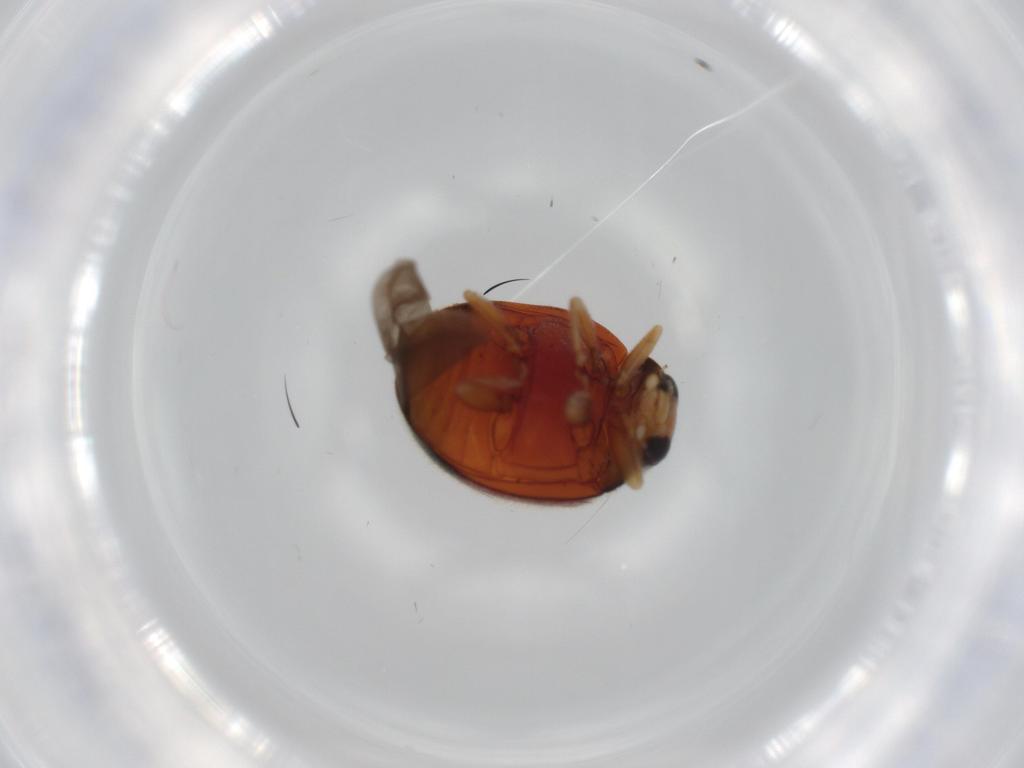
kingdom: Animalia
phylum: Arthropoda
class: Insecta
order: Coleoptera
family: Coccinellidae
